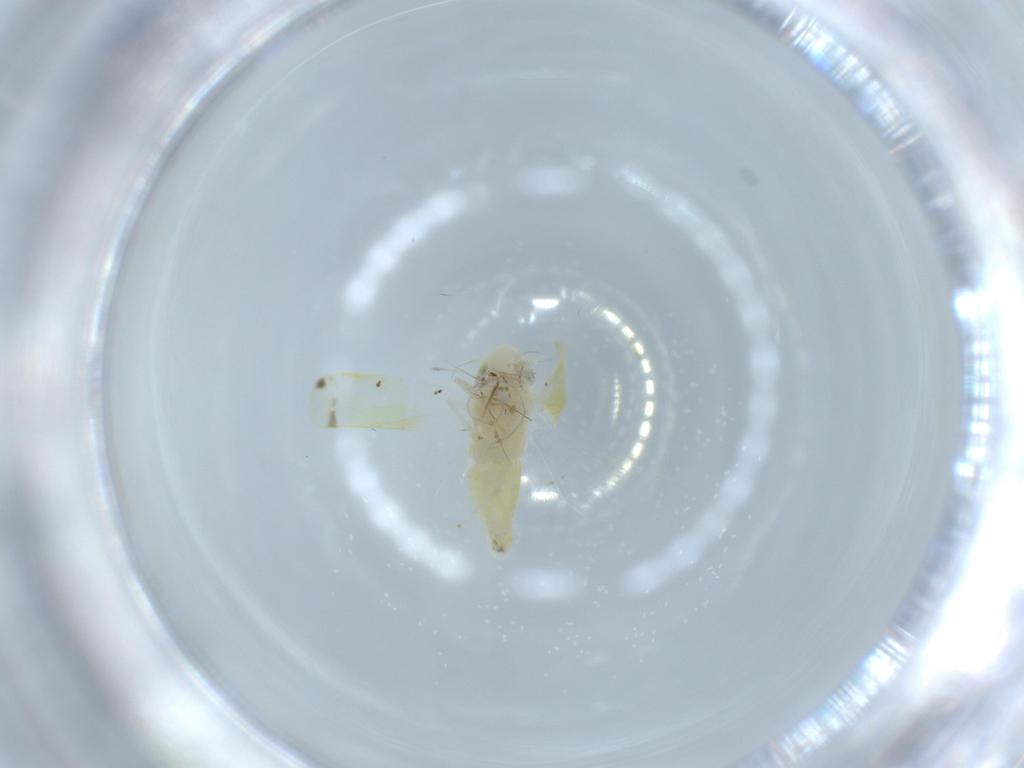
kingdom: Animalia
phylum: Arthropoda
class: Insecta
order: Hemiptera
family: Cicadellidae
